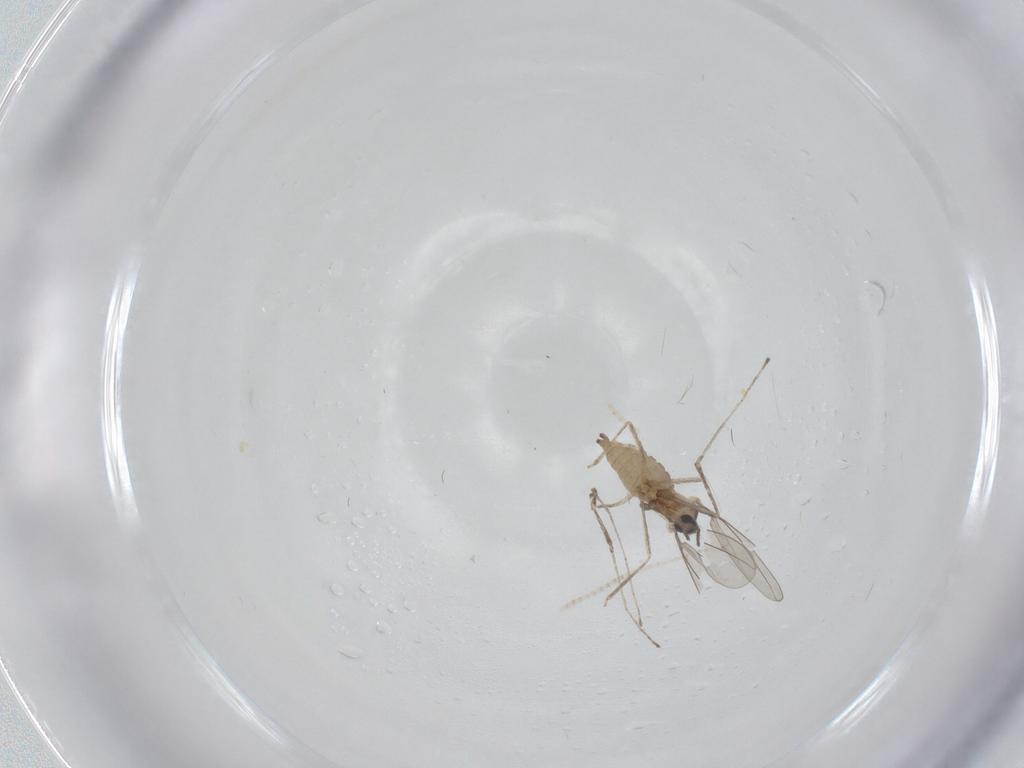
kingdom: Animalia
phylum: Arthropoda
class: Insecta
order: Diptera
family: Cecidomyiidae
